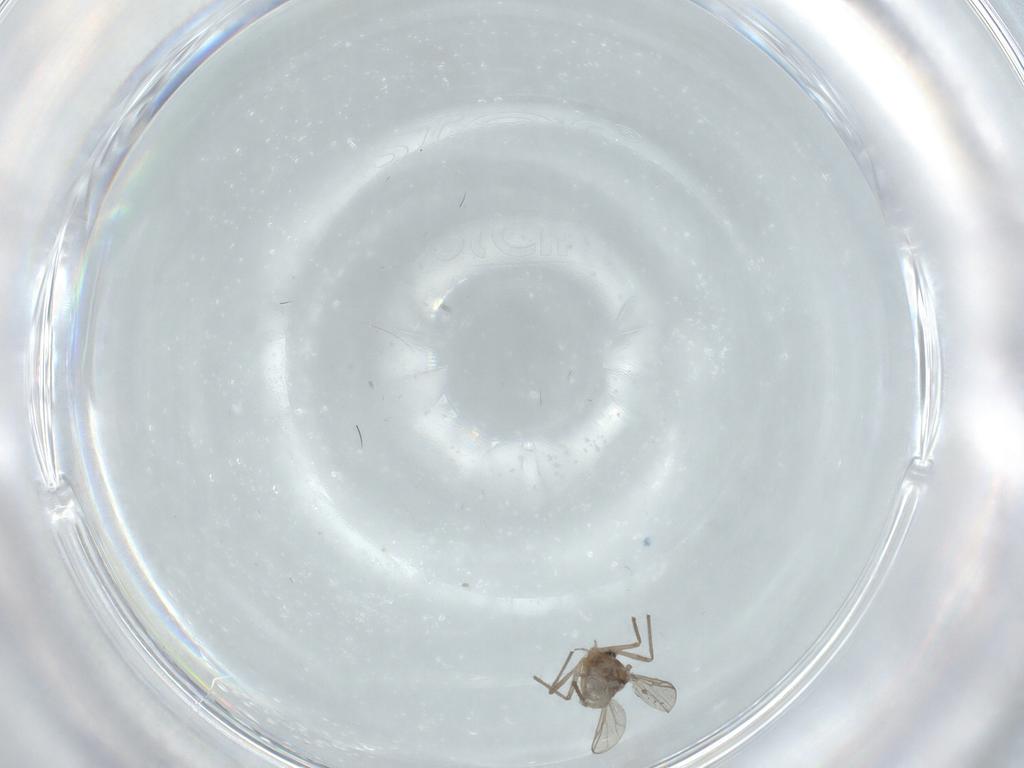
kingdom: Animalia
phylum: Arthropoda
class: Insecta
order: Diptera
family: Chironomidae
